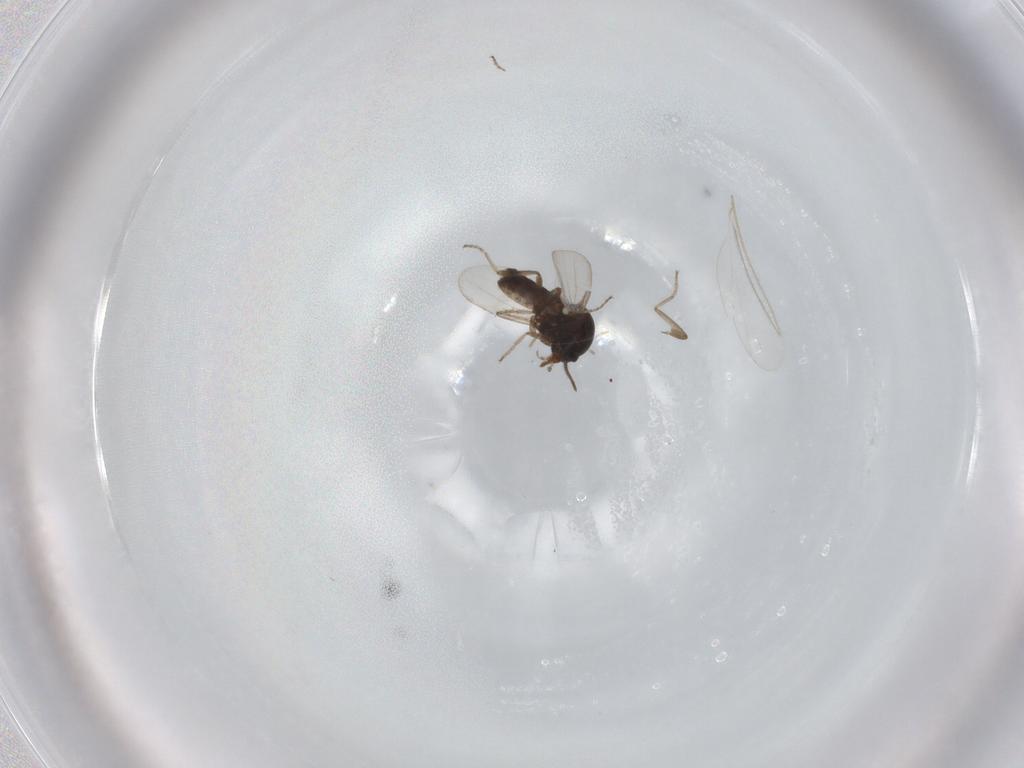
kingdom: Animalia
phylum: Arthropoda
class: Insecta
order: Diptera
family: Ceratopogonidae
